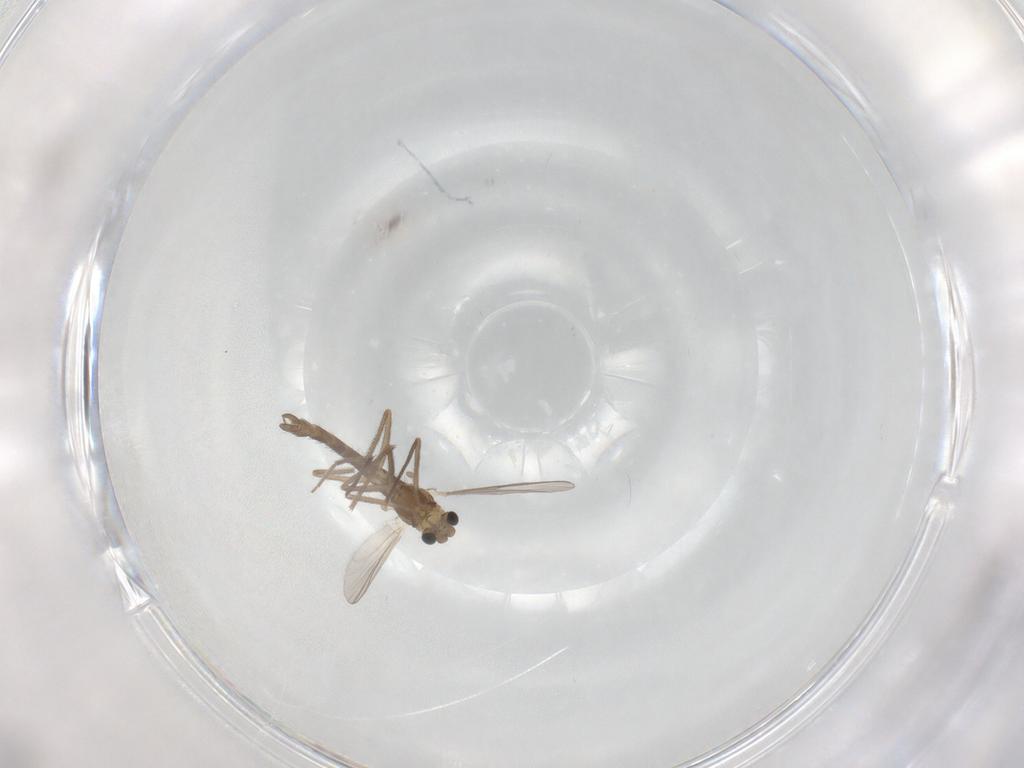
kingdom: Animalia
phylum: Arthropoda
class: Insecta
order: Diptera
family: Chironomidae
